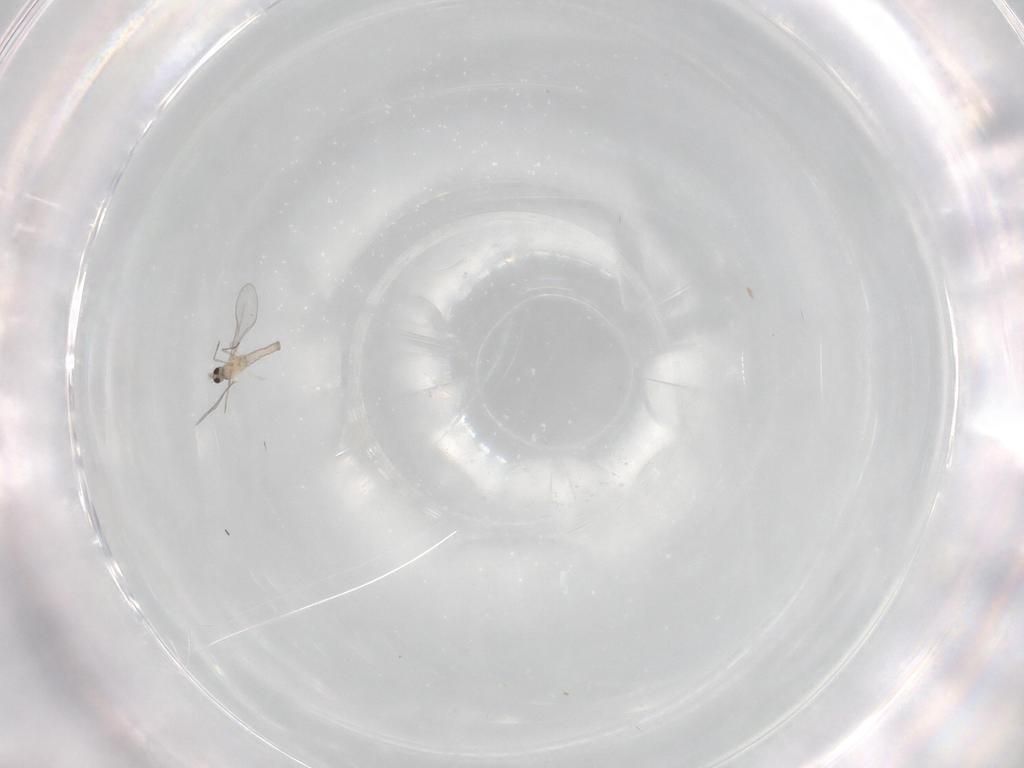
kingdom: Animalia
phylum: Arthropoda
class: Insecta
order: Diptera
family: Cecidomyiidae
